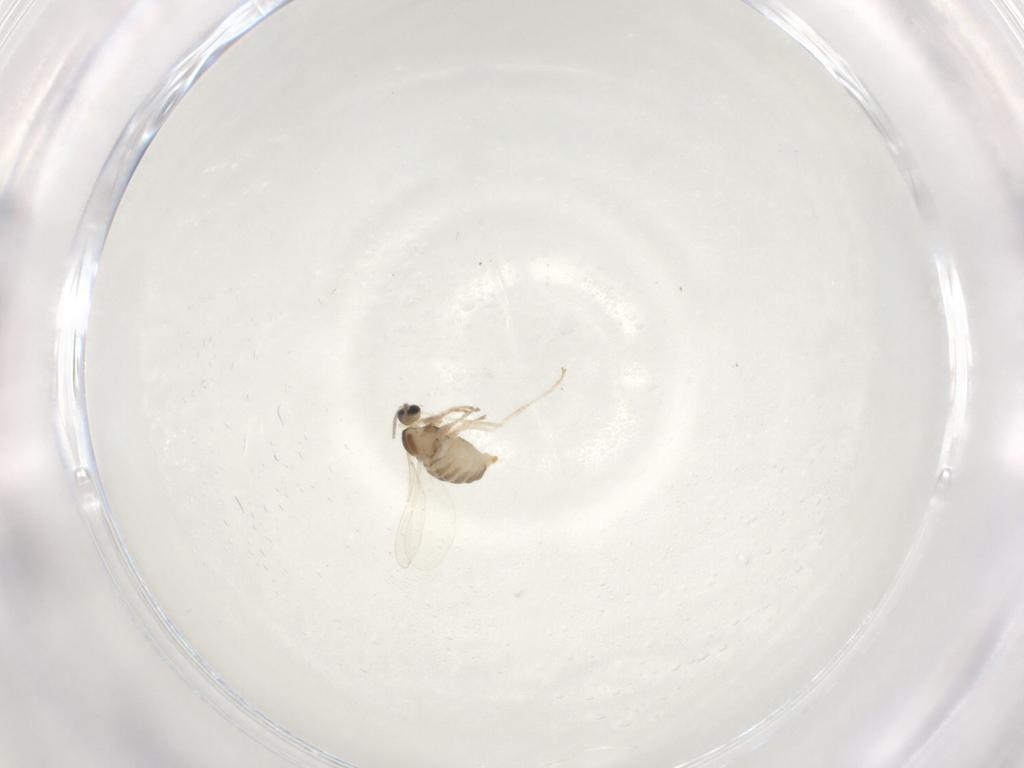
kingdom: Animalia
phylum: Arthropoda
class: Insecta
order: Diptera
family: Cecidomyiidae
